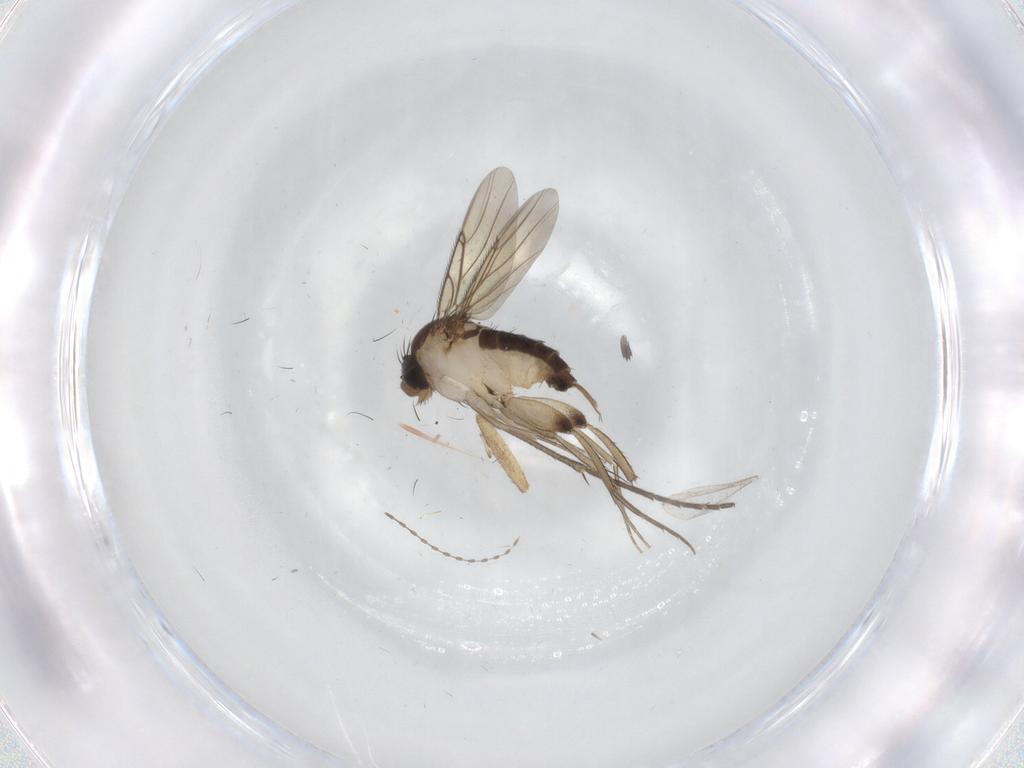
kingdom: Animalia
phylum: Arthropoda
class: Insecta
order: Diptera
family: Phoridae
